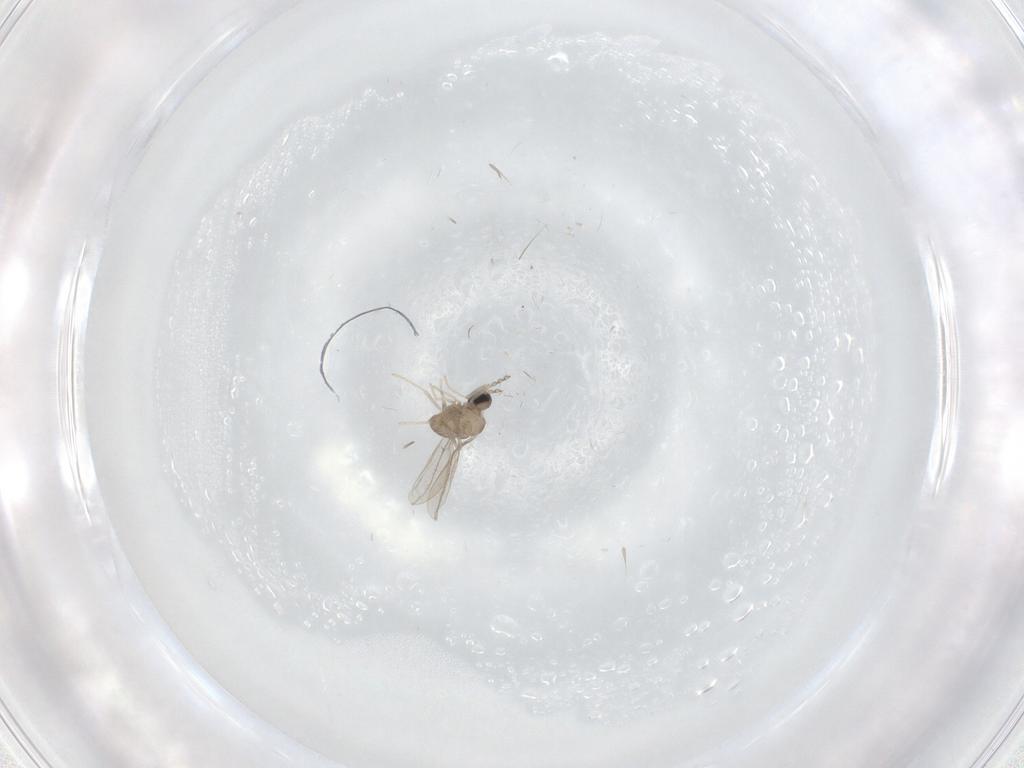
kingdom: Animalia
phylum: Arthropoda
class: Insecta
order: Diptera
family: Cecidomyiidae
